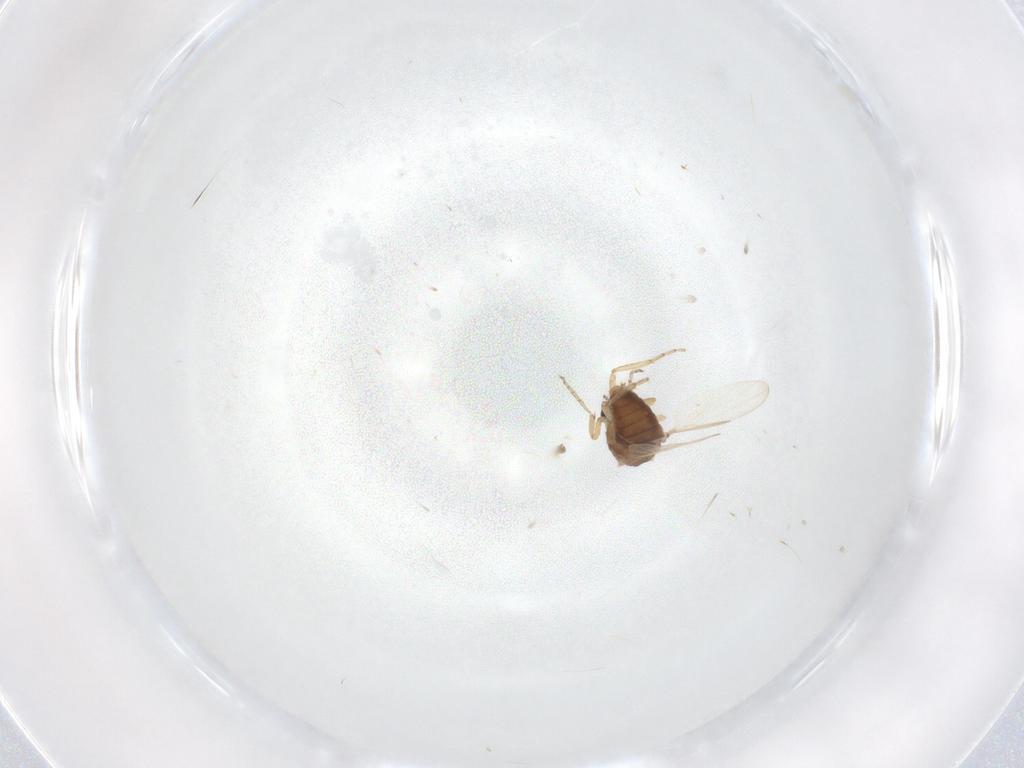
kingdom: Animalia
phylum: Arthropoda
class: Insecta
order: Diptera
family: Ceratopogonidae
